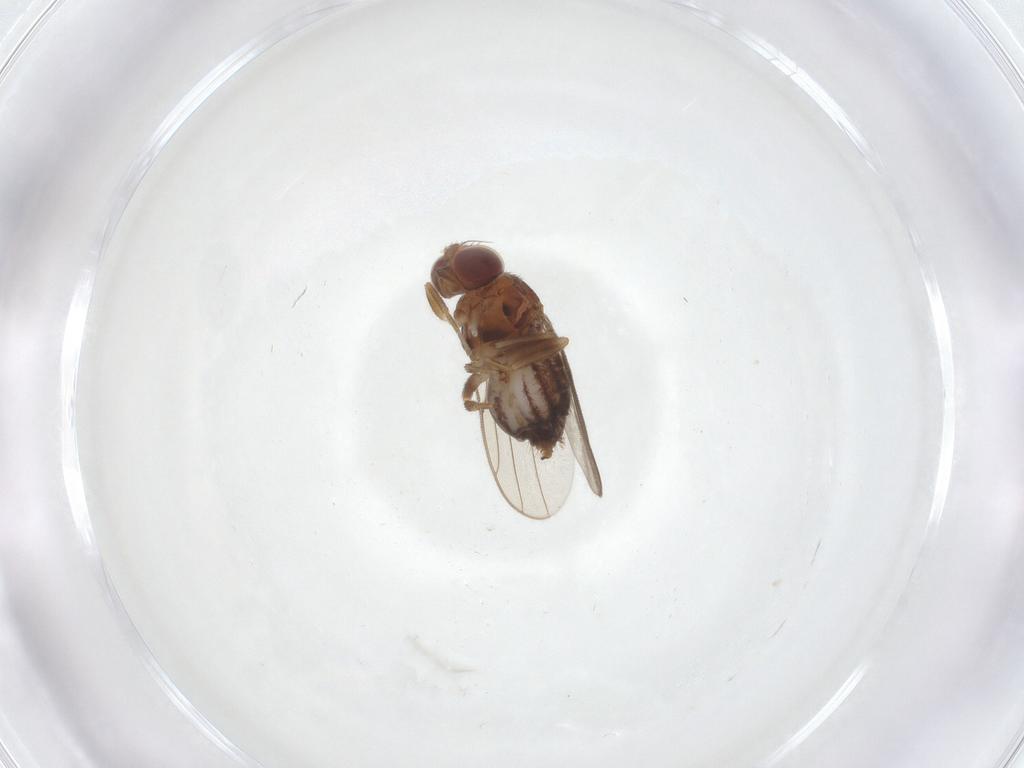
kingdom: Animalia
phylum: Arthropoda
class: Insecta
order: Diptera
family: Chloropidae
